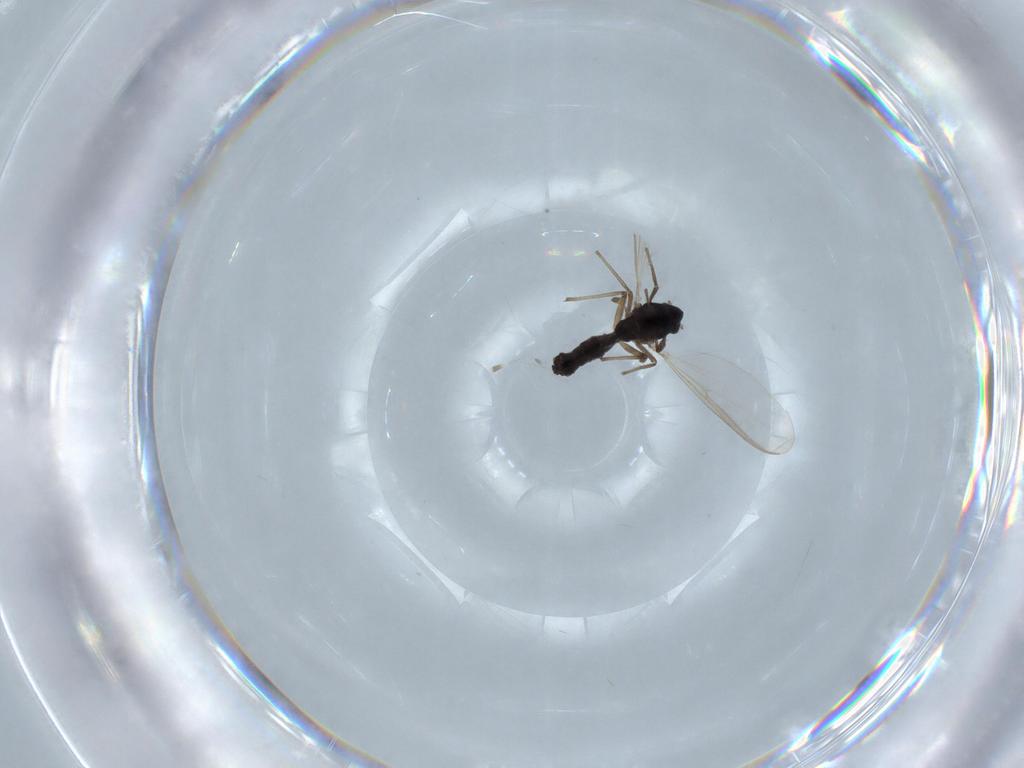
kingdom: Animalia
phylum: Arthropoda
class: Insecta
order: Diptera
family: Chironomidae
